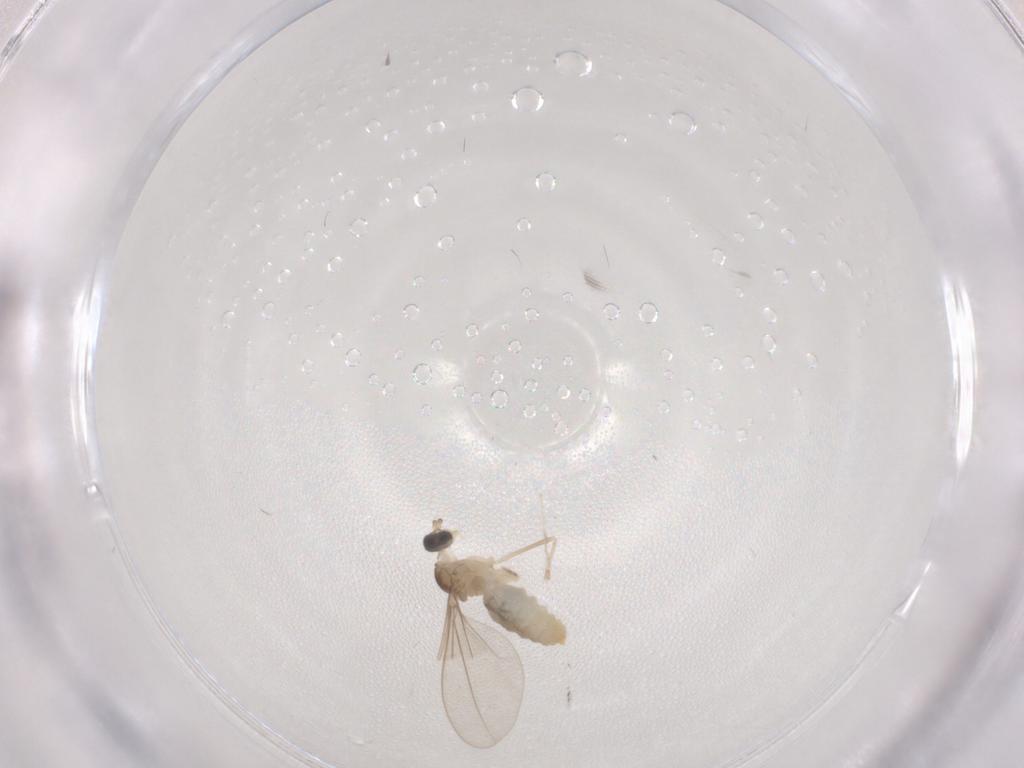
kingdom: Animalia
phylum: Arthropoda
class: Insecta
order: Diptera
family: Cecidomyiidae
